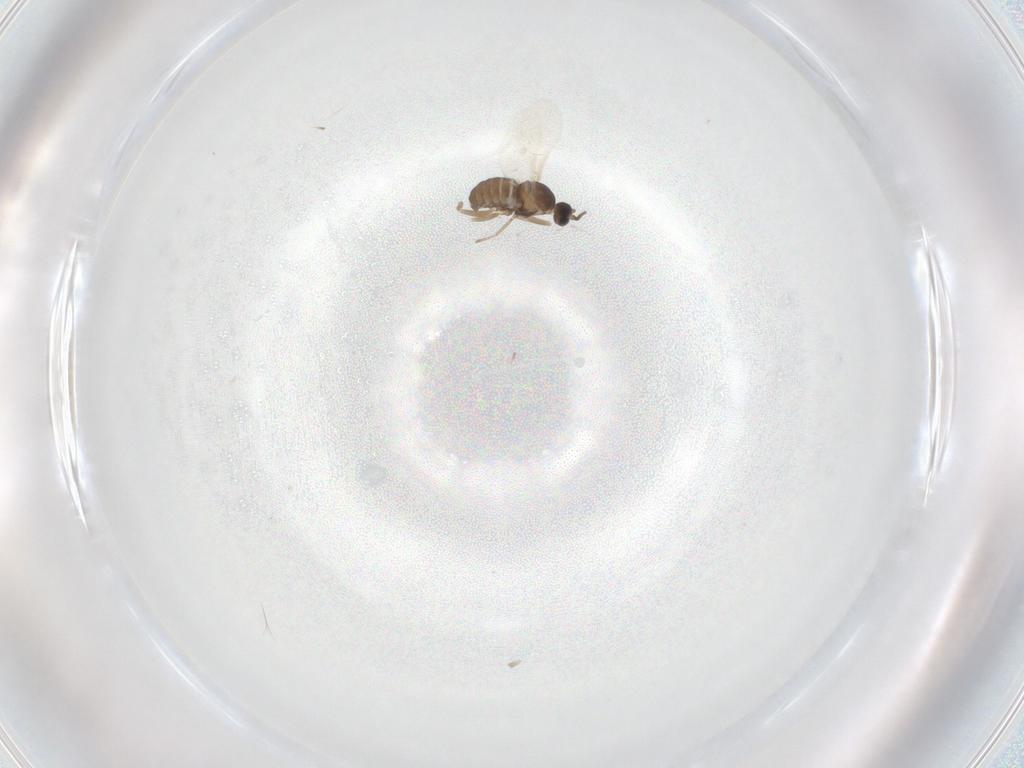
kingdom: Animalia
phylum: Arthropoda
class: Insecta
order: Diptera
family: Cecidomyiidae
